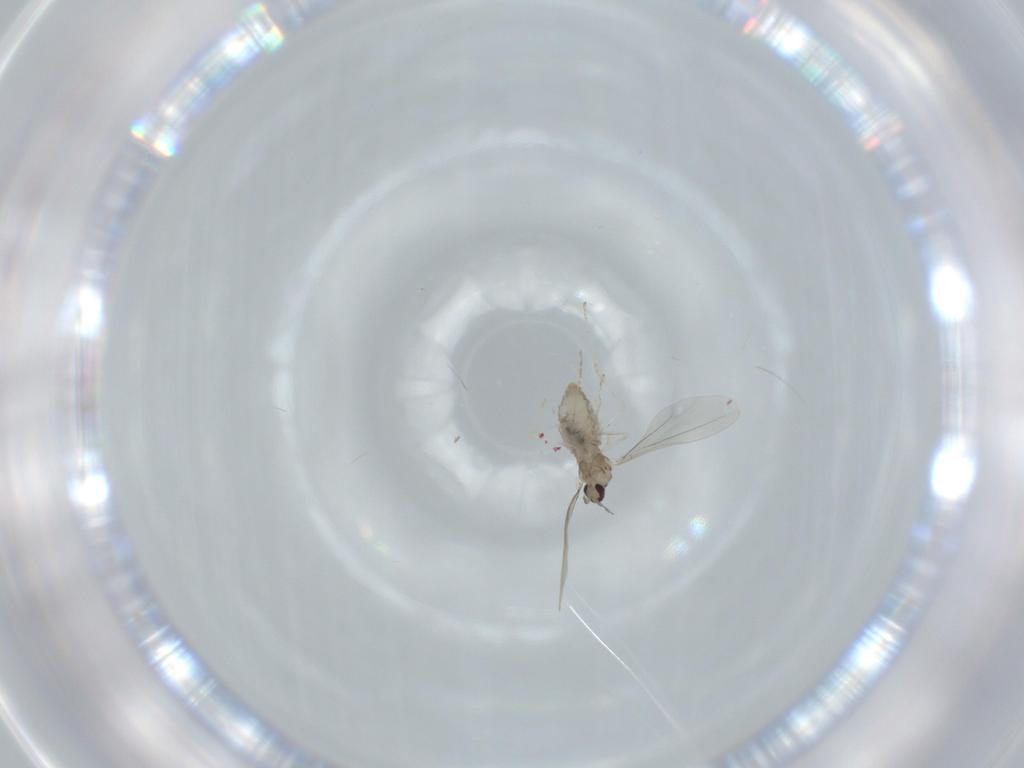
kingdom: Animalia
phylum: Arthropoda
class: Insecta
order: Diptera
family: Cecidomyiidae
